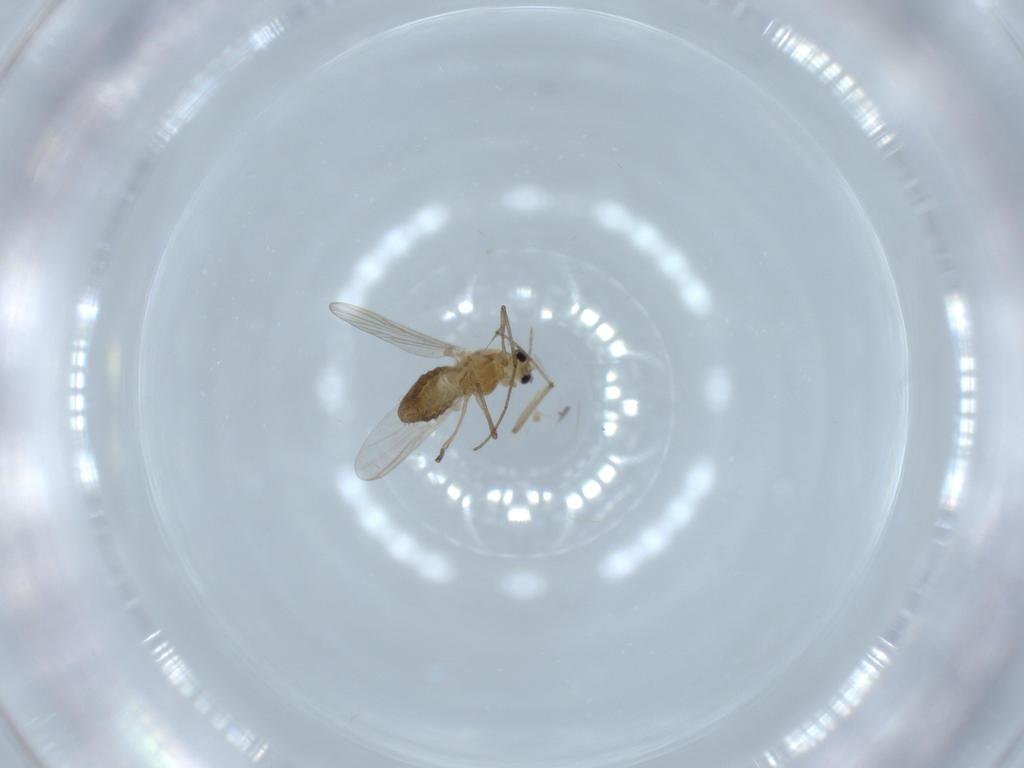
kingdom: Animalia
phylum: Arthropoda
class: Insecta
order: Diptera
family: Chironomidae
